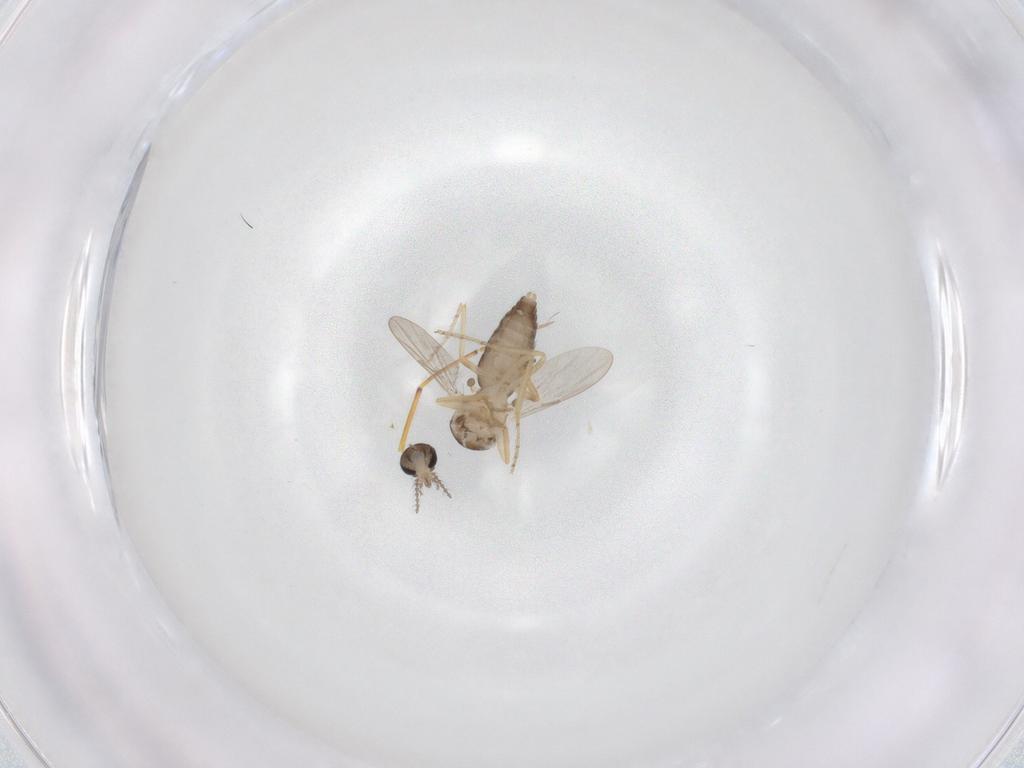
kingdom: Animalia
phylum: Arthropoda
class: Insecta
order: Diptera
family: Ceratopogonidae
